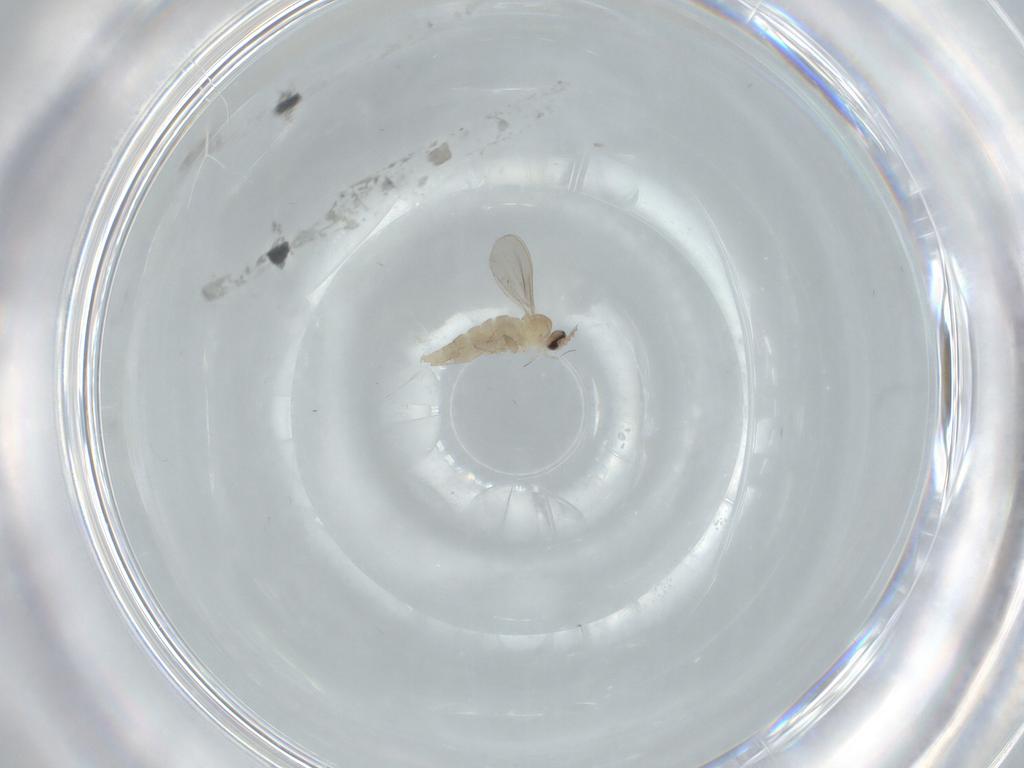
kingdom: Animalia
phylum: Arthropoda
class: Insecta
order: Diptera
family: Cecidomyiidae
